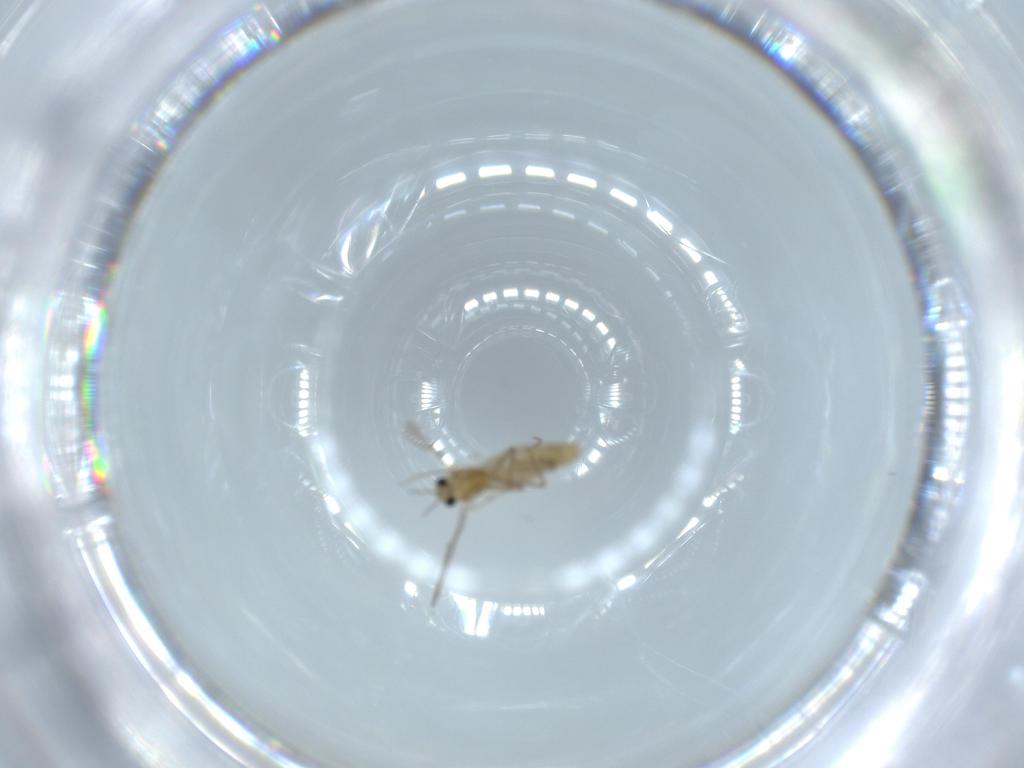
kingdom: Animalia
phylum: Arthropoda
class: Insecta
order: Diptera
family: Chironomidae
